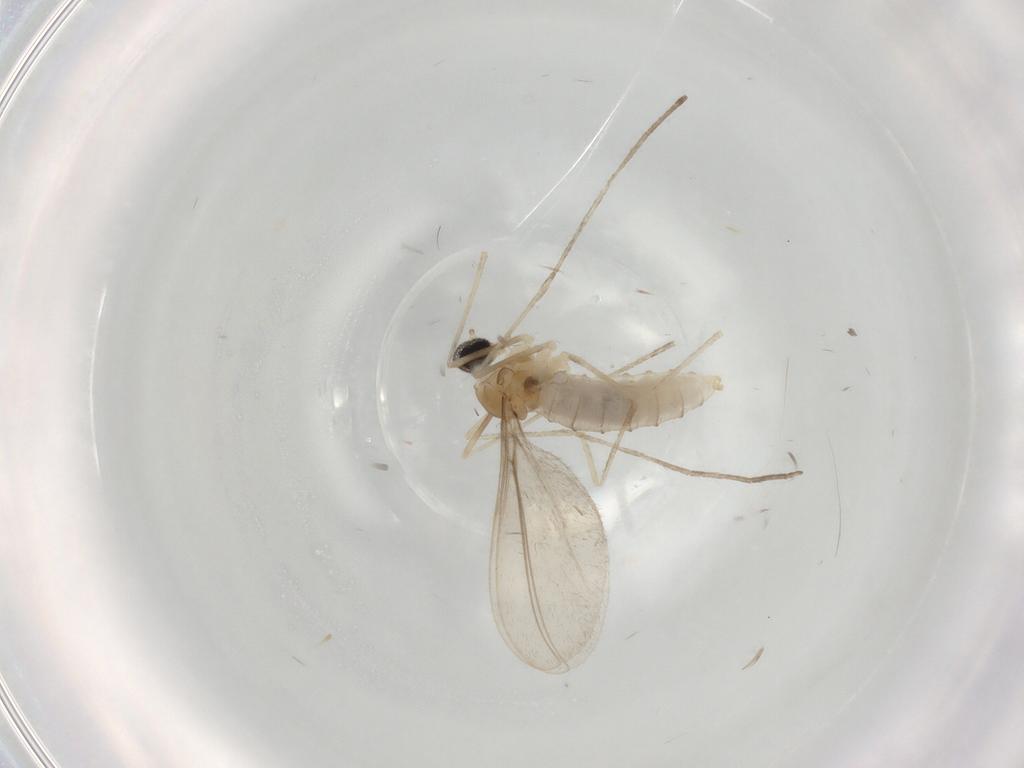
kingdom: Animalia
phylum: Arthropoda
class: Insecta
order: Diptera
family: Cecidomyiidae
